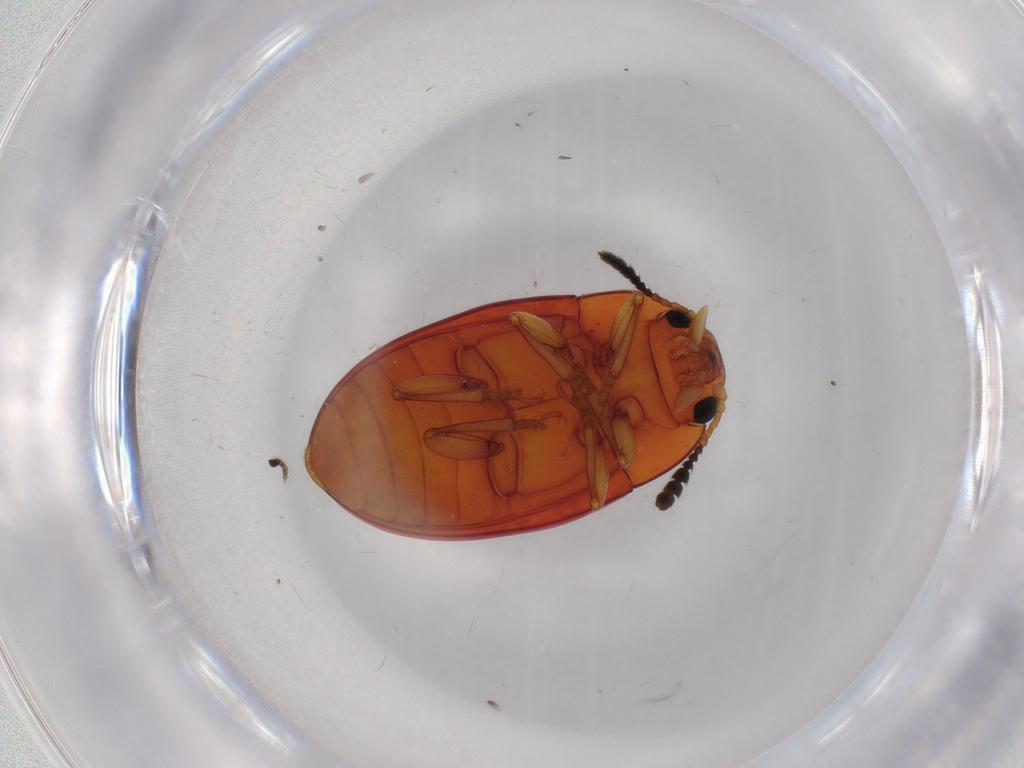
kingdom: Animalia
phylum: Arthropoda
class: Insecta
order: Coleoptera
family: Erotylidae
